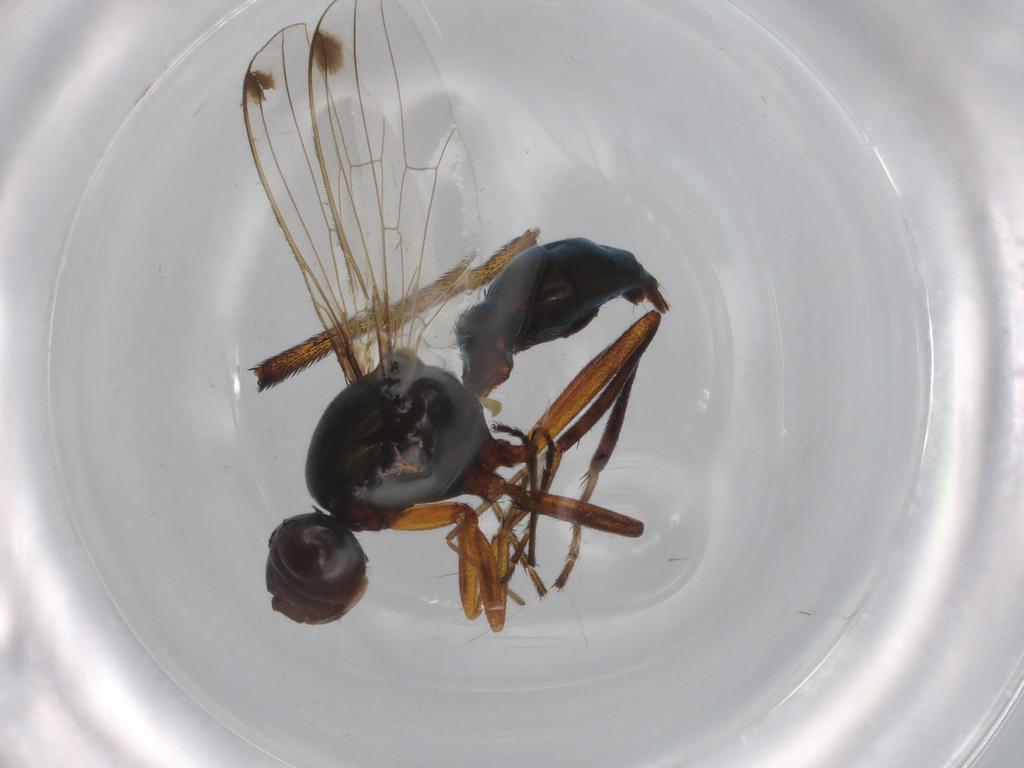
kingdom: Animalia
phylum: Arthropoda
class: Insecta
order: Diptera
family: Sepsidae
